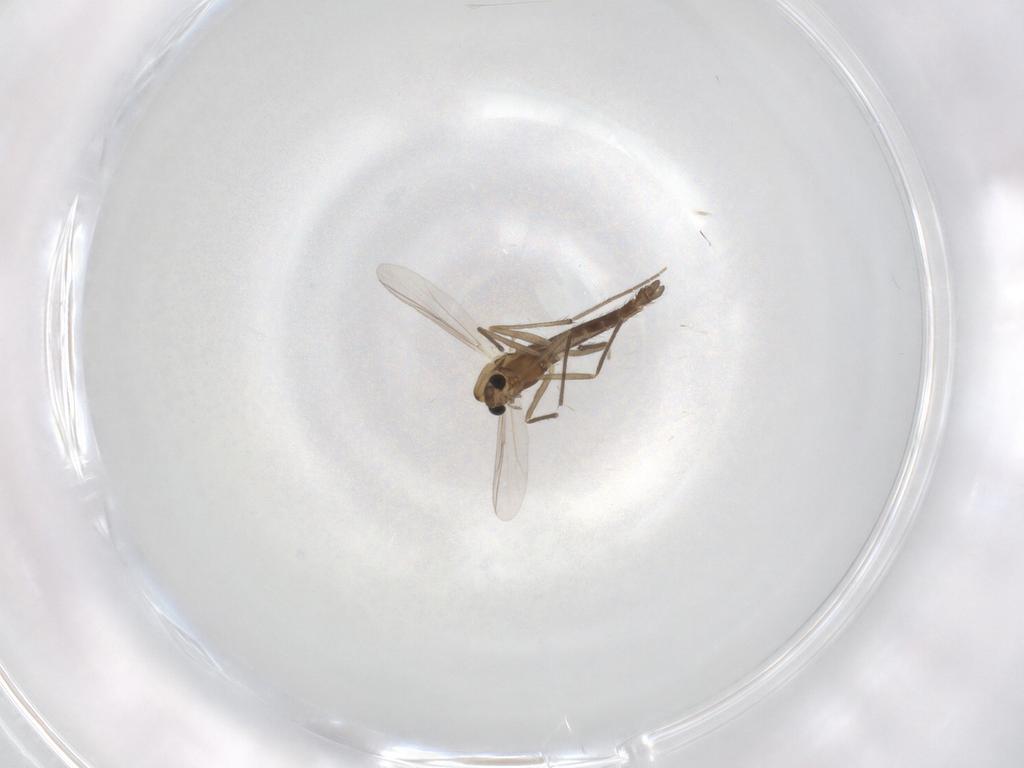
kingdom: Animalia
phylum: Arthropoda
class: Insecta
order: Diptera
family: Chironomidae
